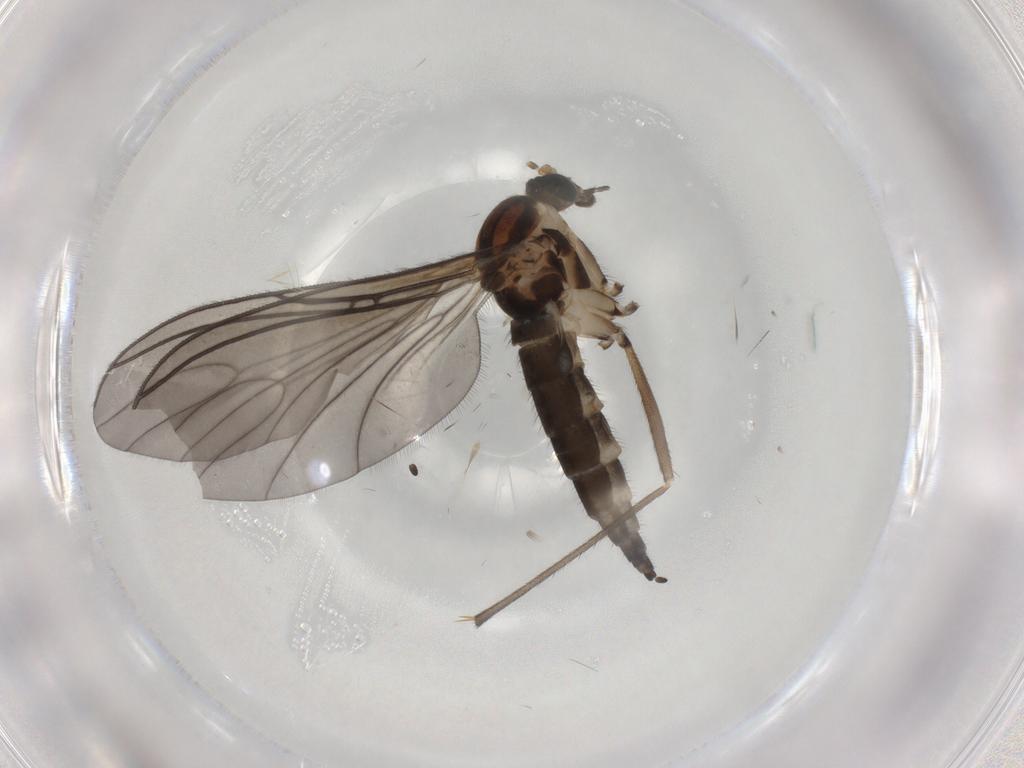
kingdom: Animalia
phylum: Arthropoda
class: Insecta
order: Diptera
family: Sciaridae
